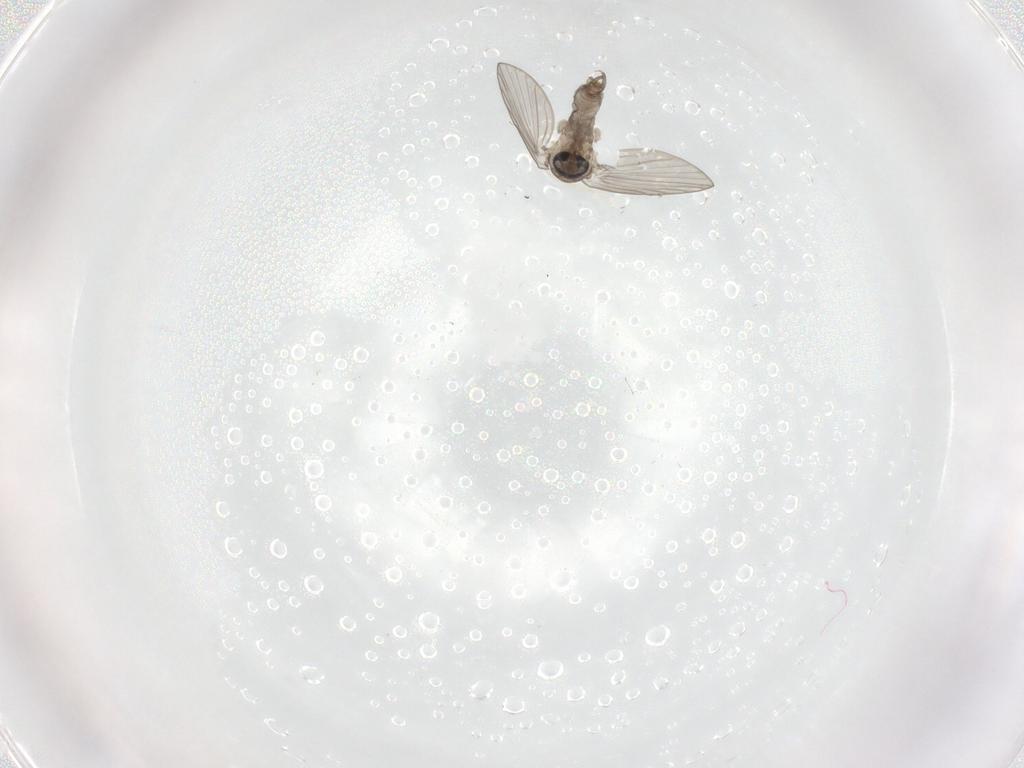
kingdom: Animalia
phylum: Arthropoda
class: Insecta
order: Diptera
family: Psychodidae
